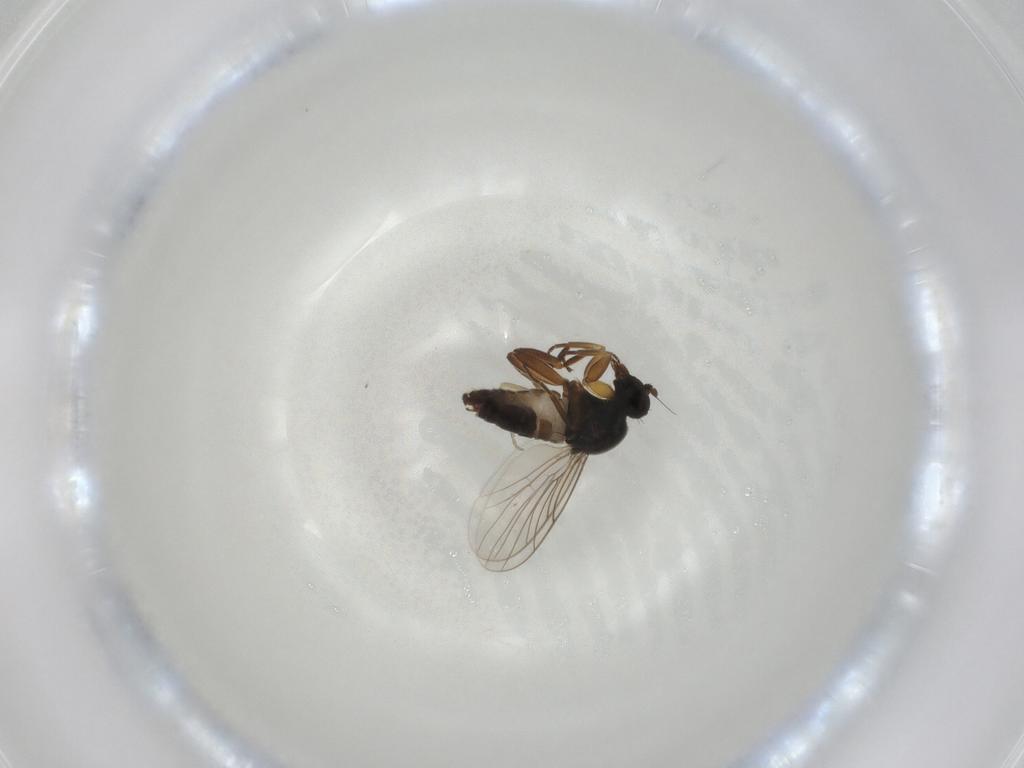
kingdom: Animalia
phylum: Arthropoda
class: Insecta
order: Diptera
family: Hybotidae
